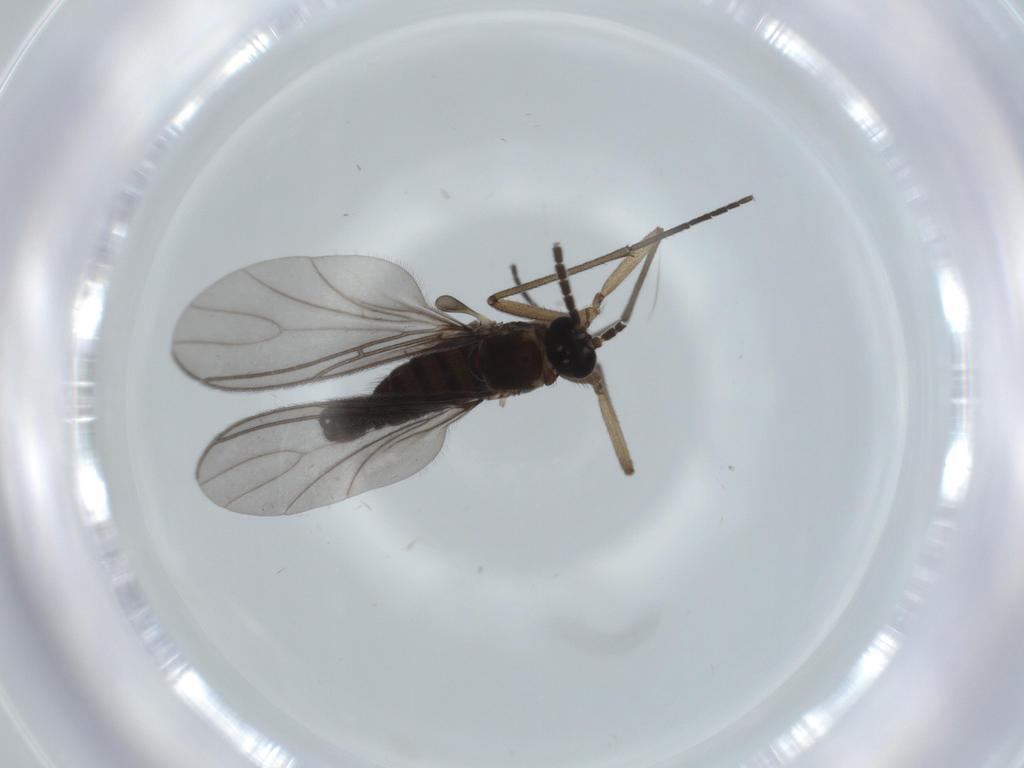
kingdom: Animalia
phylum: Arthropoda
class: Insecta
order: Diptera
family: Sciaridae
